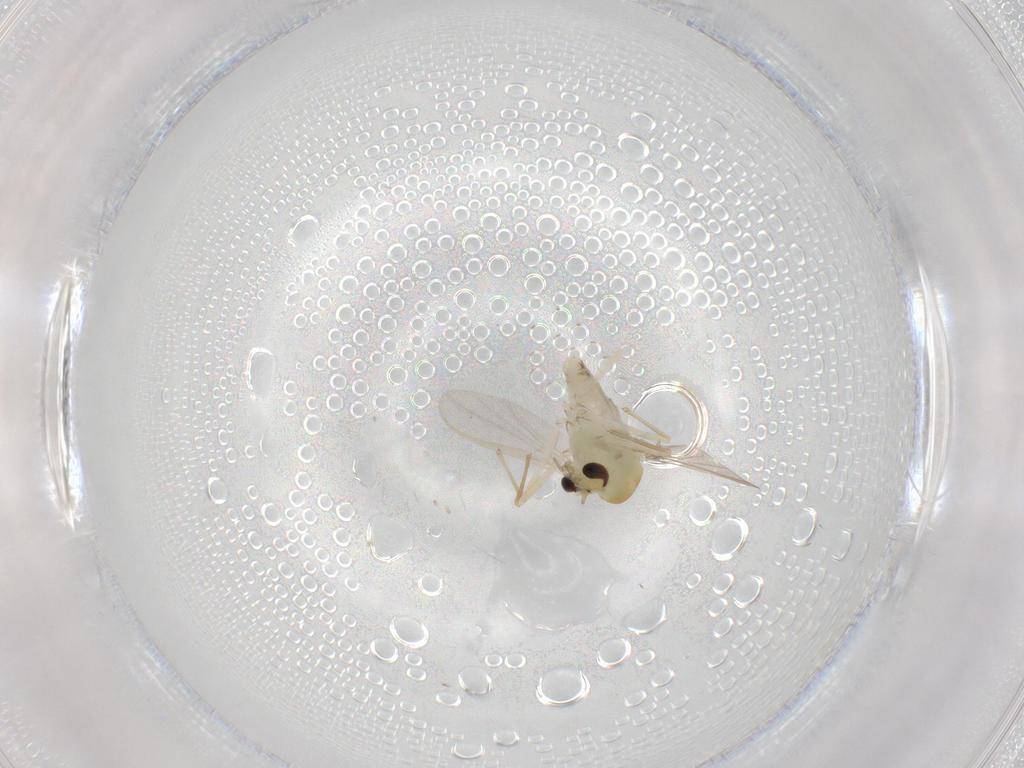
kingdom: Animalia
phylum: Arthropoda
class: Insecta
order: Diptera
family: Chironomidae
